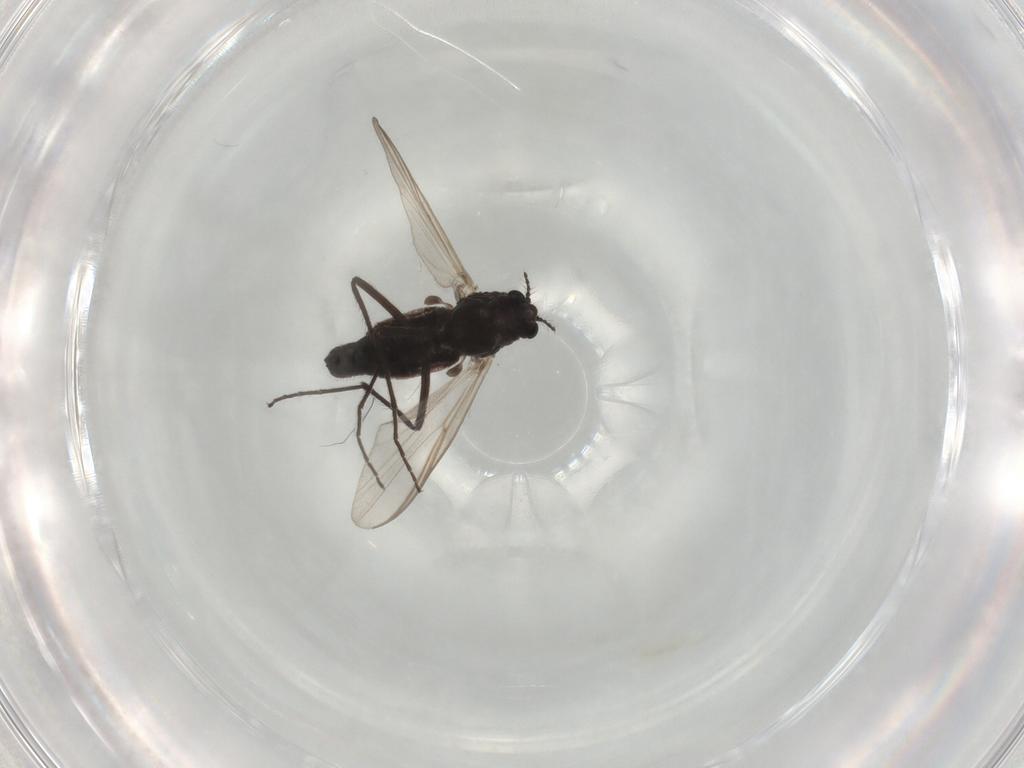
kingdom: Animalia
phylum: Arthropoda
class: Insecta
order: Diptera
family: Chironomidae
